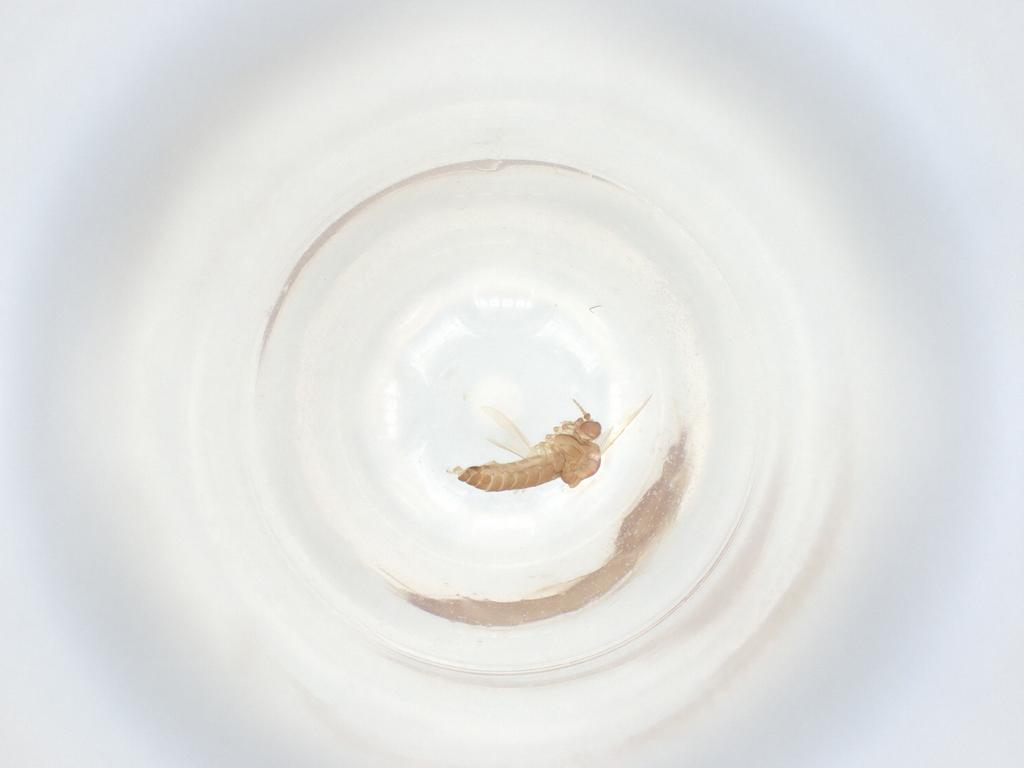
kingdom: Animalia
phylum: Arthropoda
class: Insecta
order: Diptera
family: Ceratopogonidae
